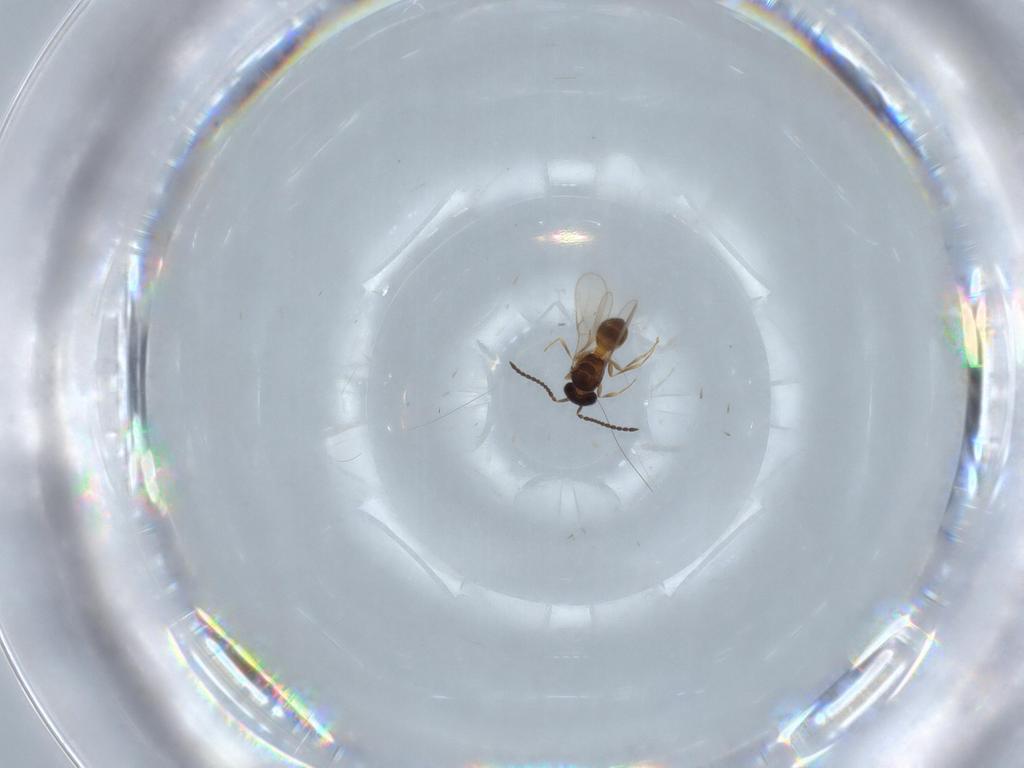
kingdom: Animalia
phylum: Arthropoda
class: Insecta
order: Hymenoptera
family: Scelionidae
